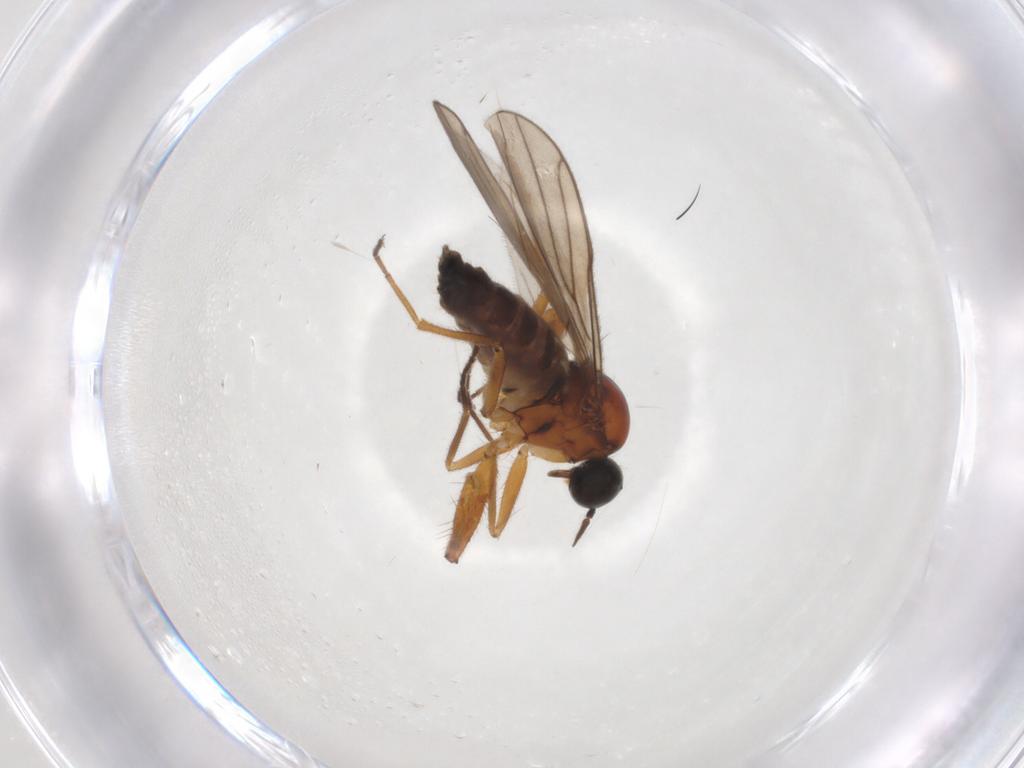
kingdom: Animalia
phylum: Arthropoda
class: Insecta
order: Diptera
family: Hybotidae
